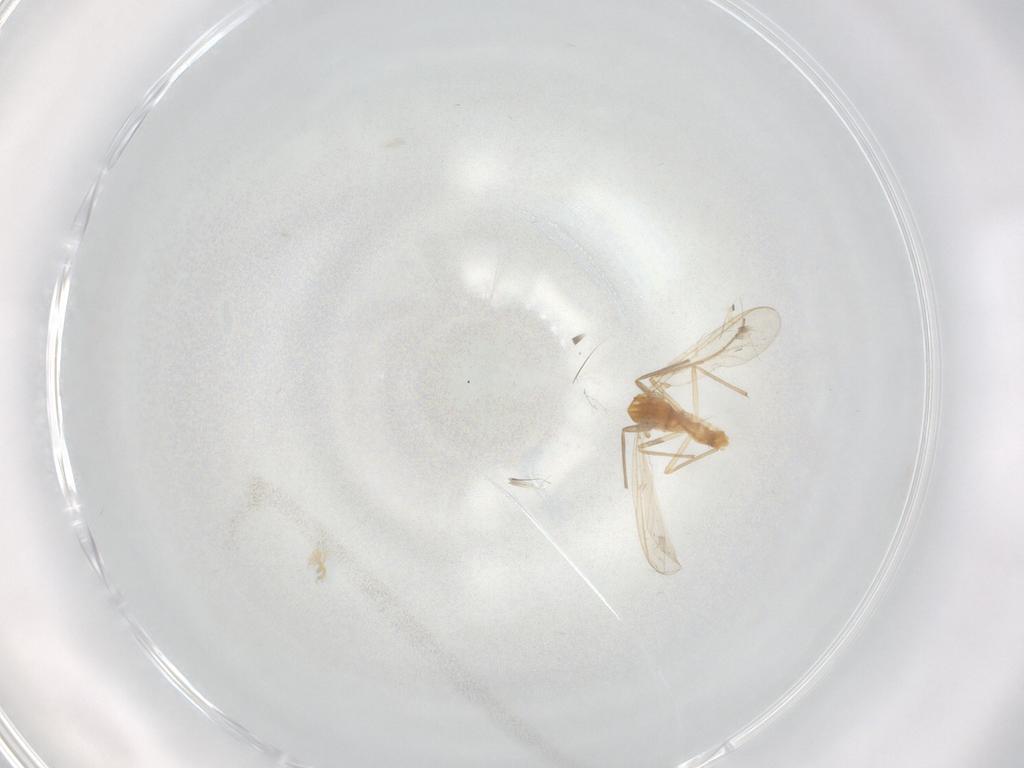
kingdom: Animalia
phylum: Arthropoda
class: Insecta
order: Diptera
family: Chironomidae
